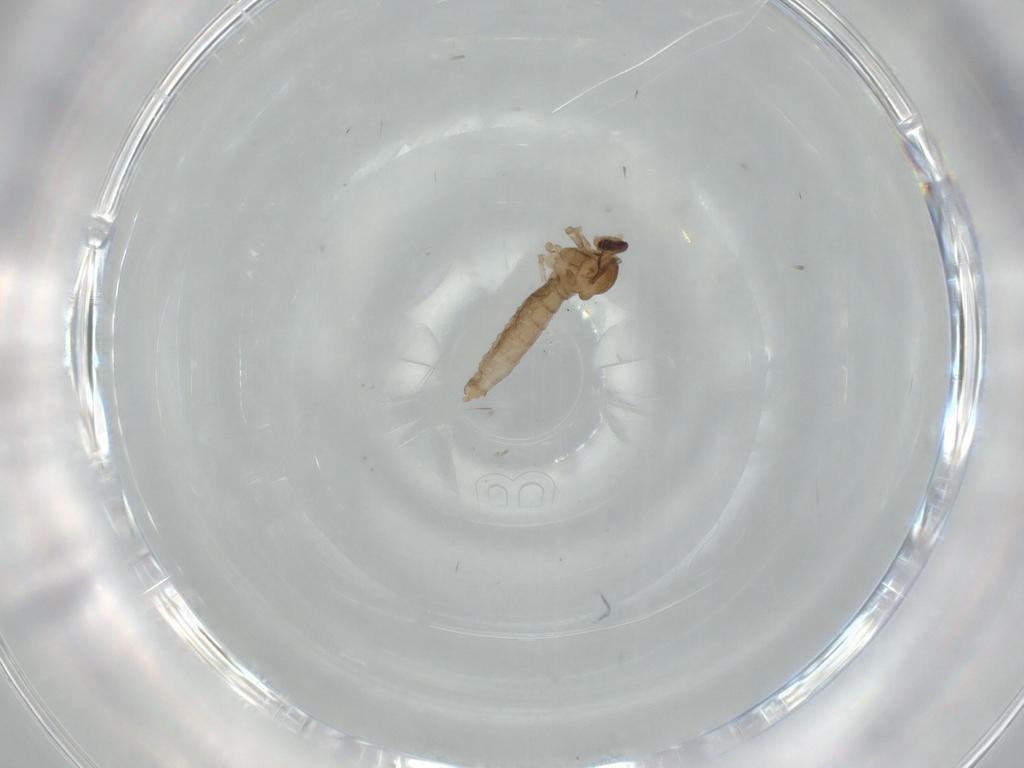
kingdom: Animalia
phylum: Arthropoda
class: Insecta
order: Diptera
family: Cecidomyiidae
